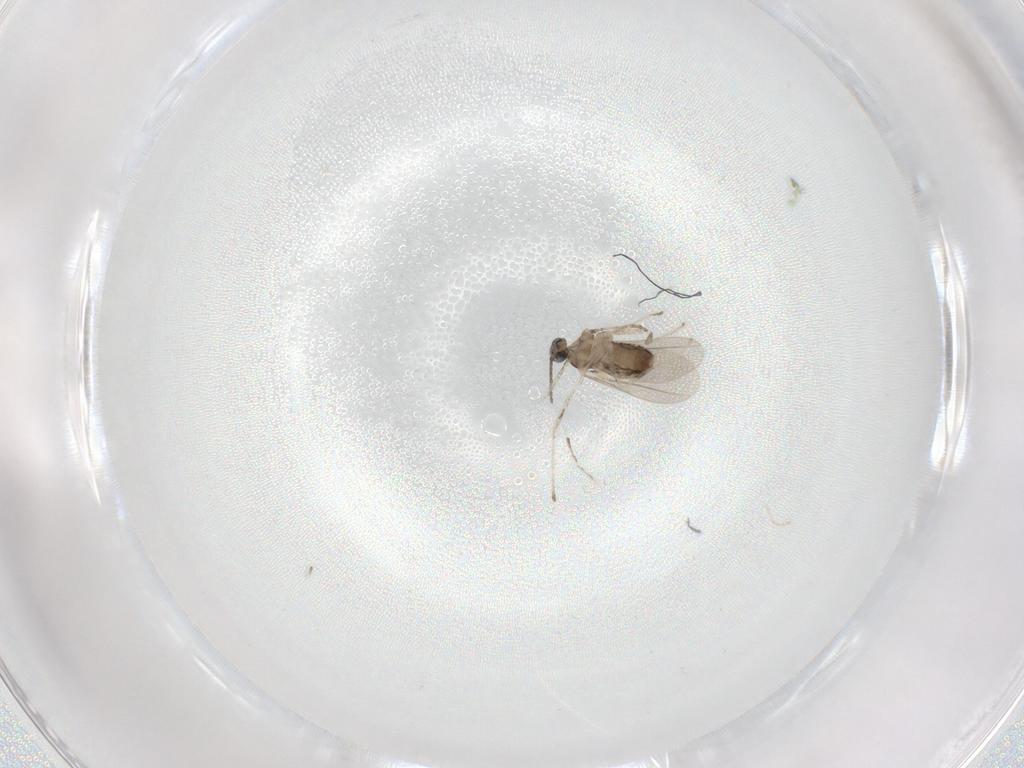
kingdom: Animalia
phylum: Arthropoda
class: Insecta
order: Diptera
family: Cecidomyiidae
